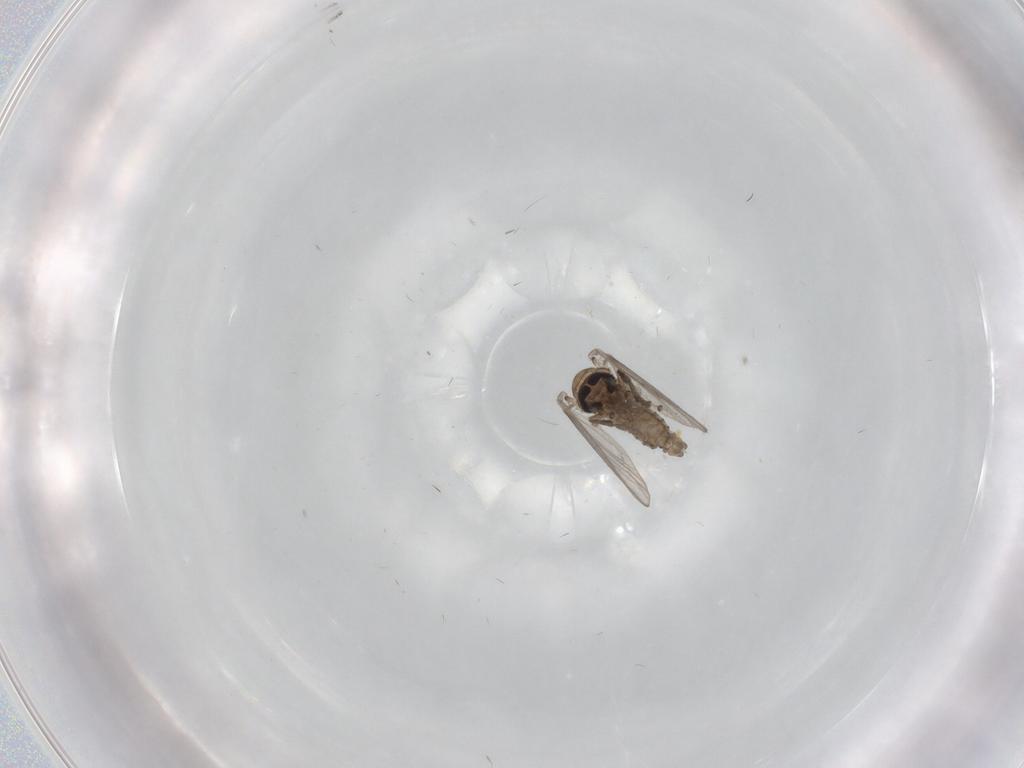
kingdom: Animalia
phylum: Arthropoda
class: Insecta
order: Diptera
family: Psychodidae
